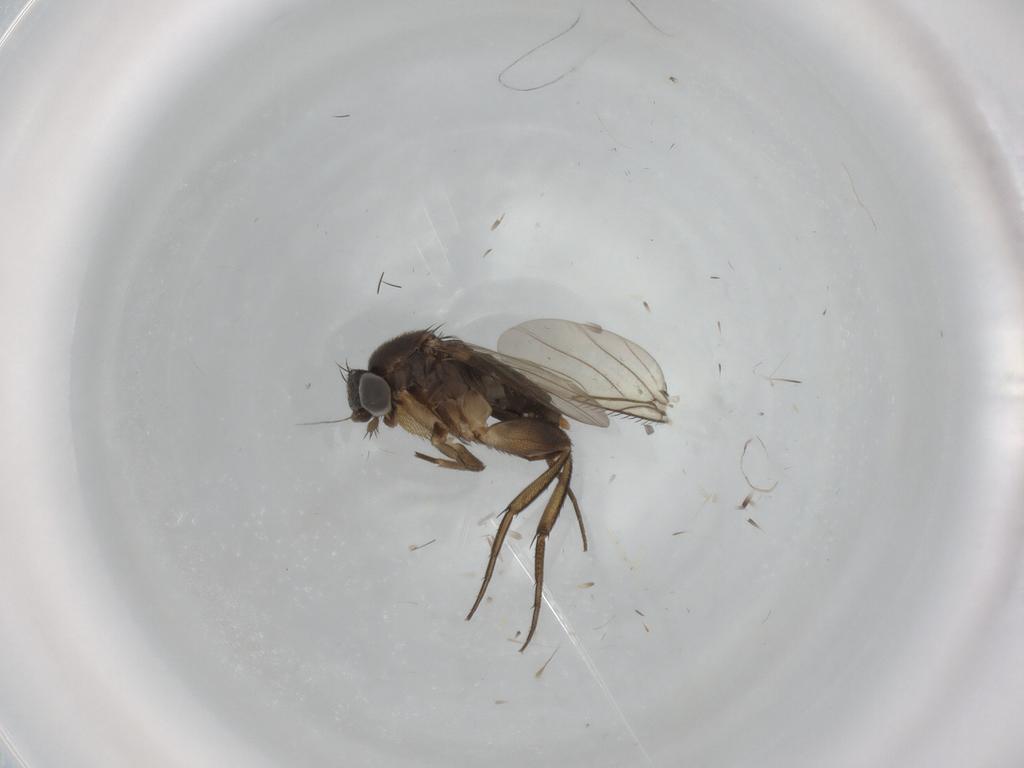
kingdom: Animalia
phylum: Arthropoda
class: Insecta
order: Diptera
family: Phoridae
